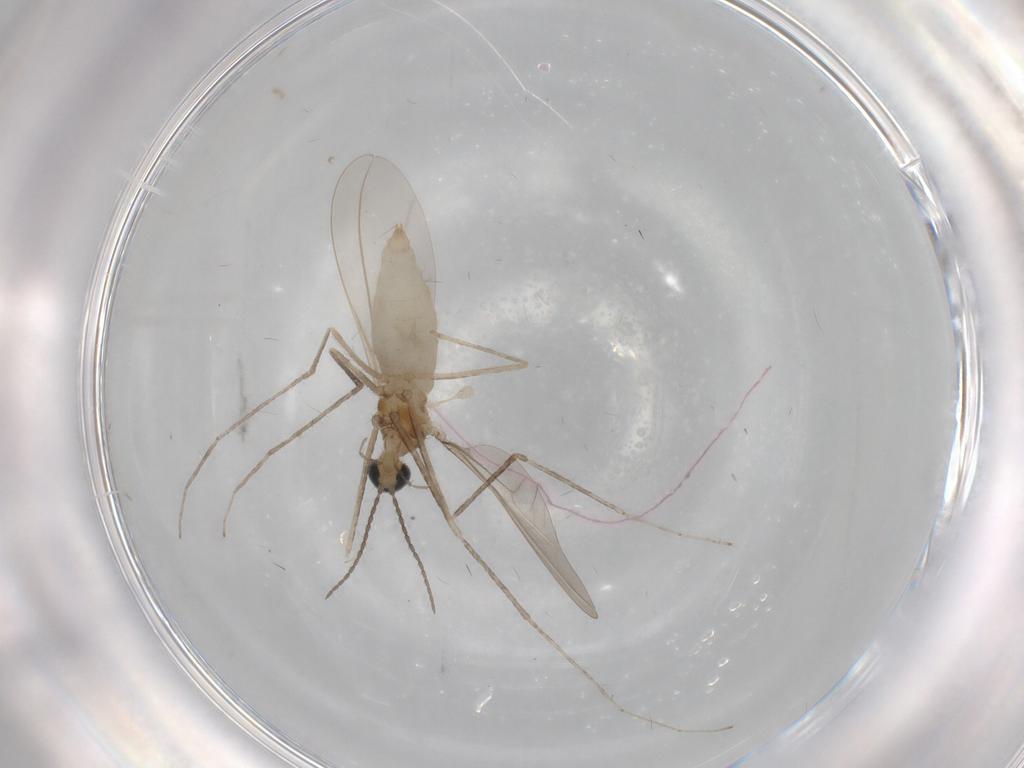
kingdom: Animalia
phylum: Arthropoda
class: Insecta
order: Diptera
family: Cecidomyiidae
